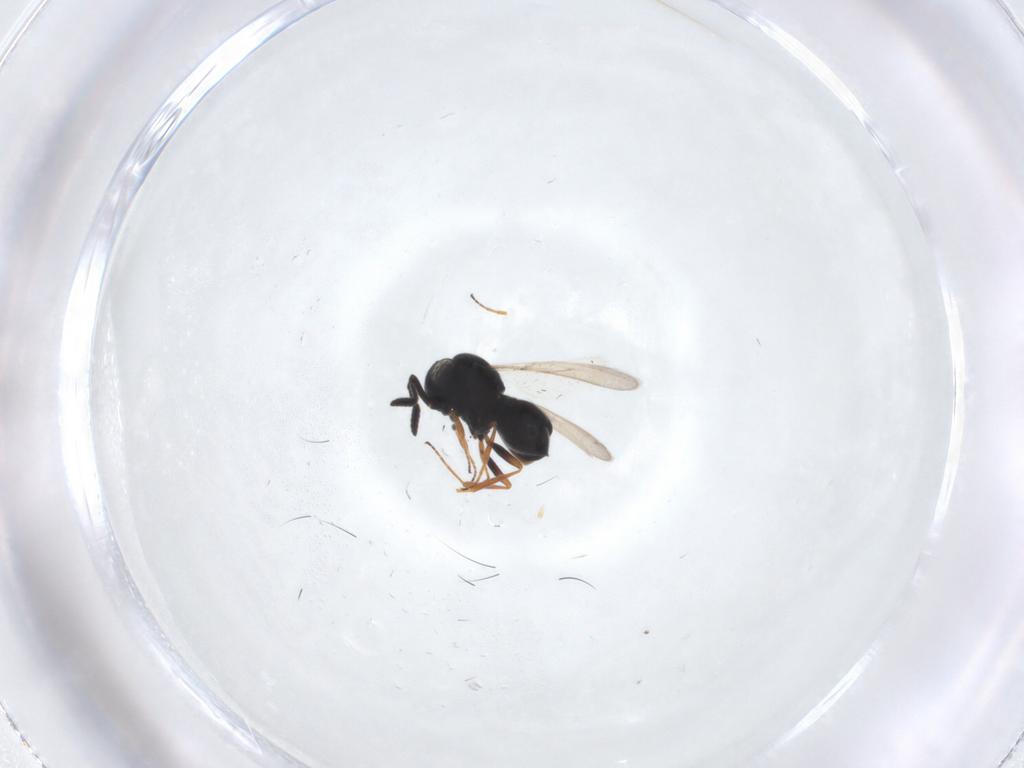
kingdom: Animalia
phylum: Arthropoda
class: Insecta
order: Hymenoptera
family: Scelionidae
